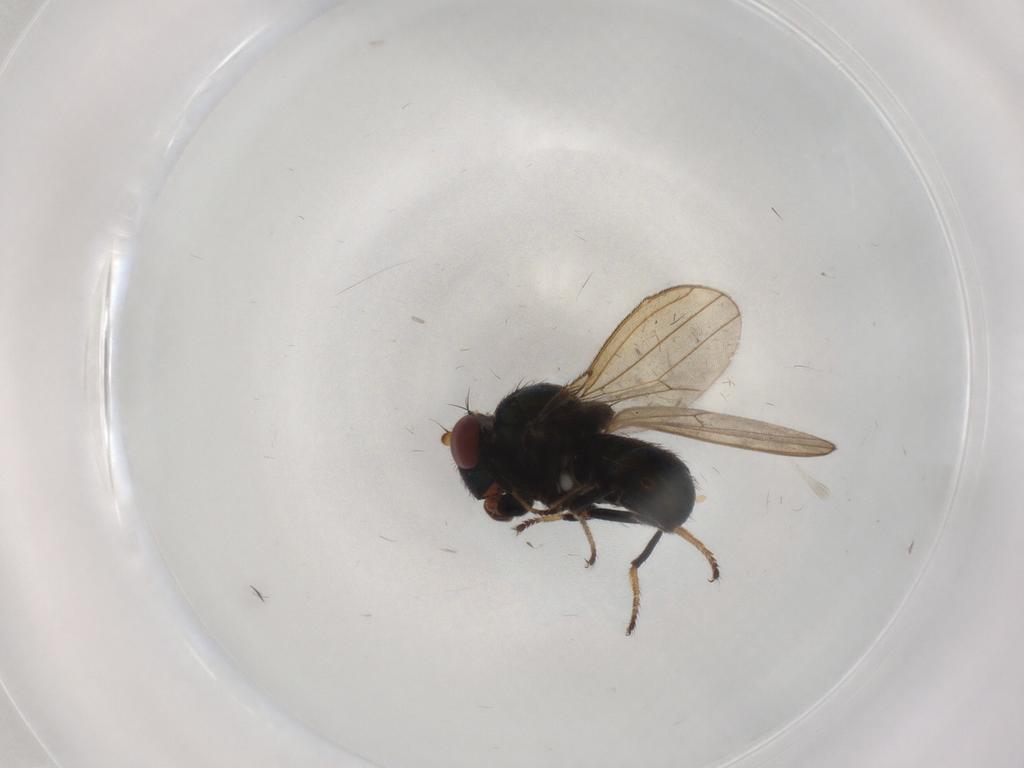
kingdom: Animalia
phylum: Arthropoda
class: Insecta
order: Diptera
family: Ephydridae
